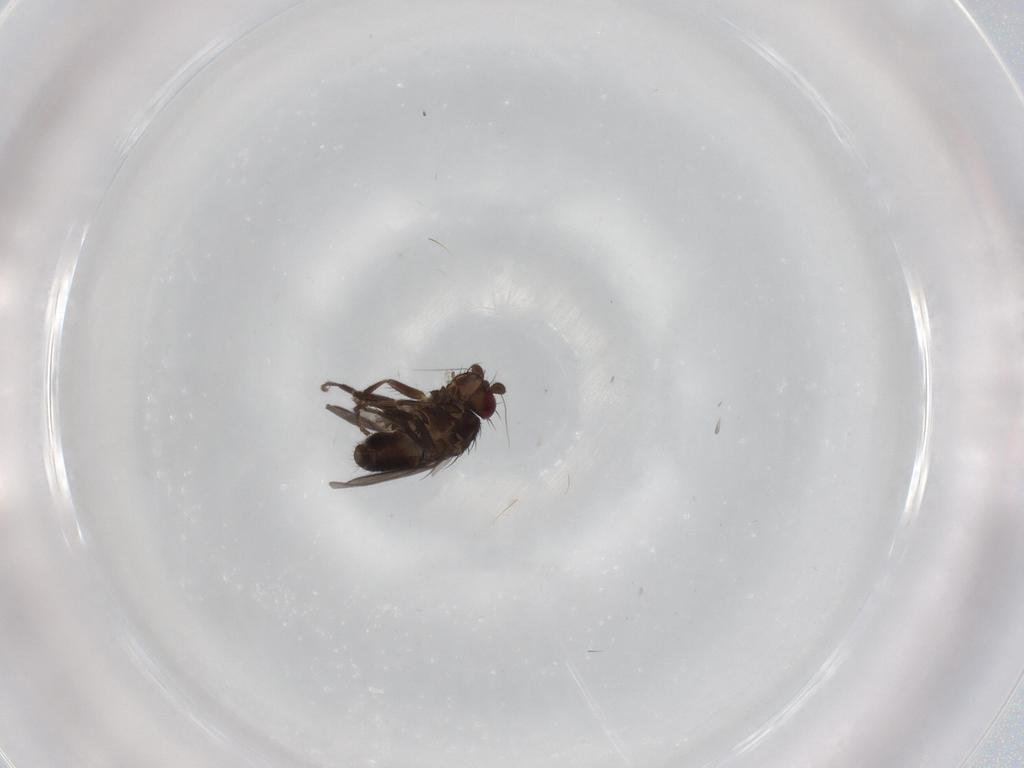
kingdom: Animalia
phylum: Arthropoda
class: Insecta
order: Diptera
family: Sphaeroceridae
